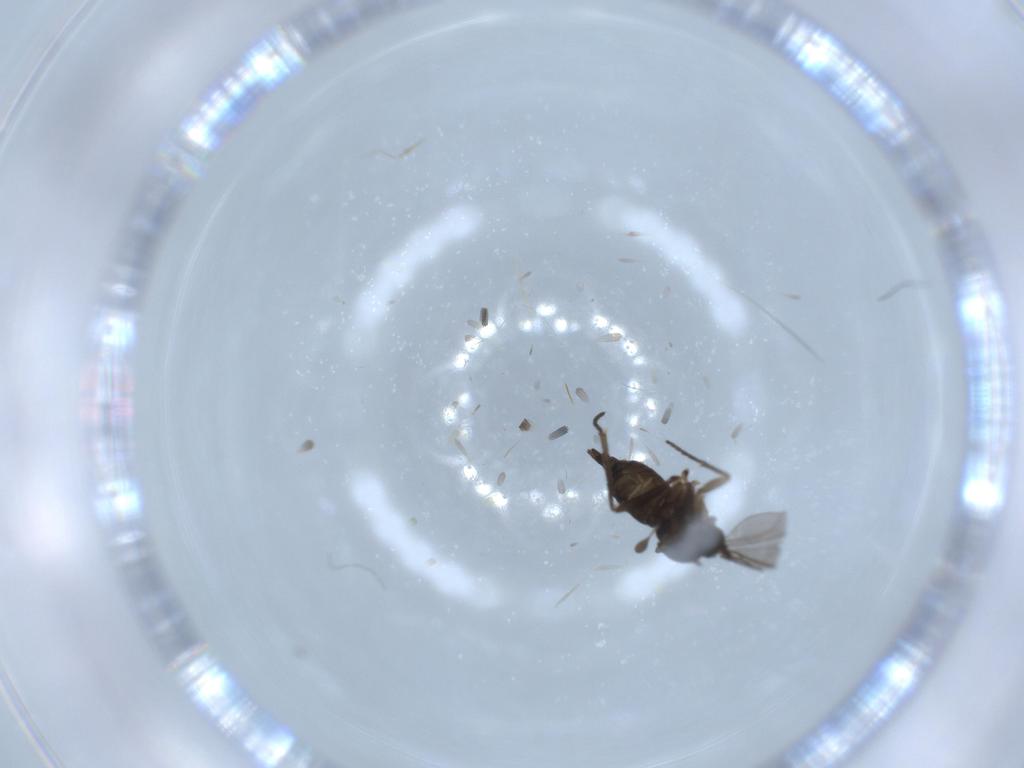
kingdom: Animalia
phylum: Arthropoda
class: Insecta
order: Diptera
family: Sciaridae
